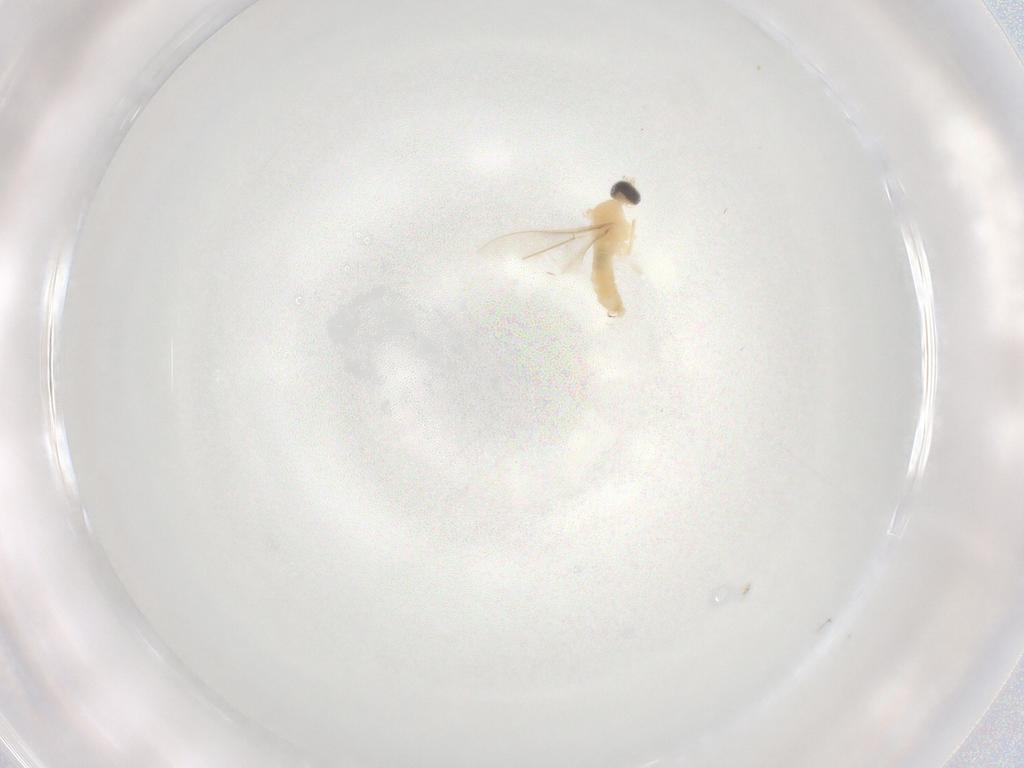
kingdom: Animalia
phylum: Arthropoda
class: Insecta
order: Diptera
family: Cecidomyiidae
